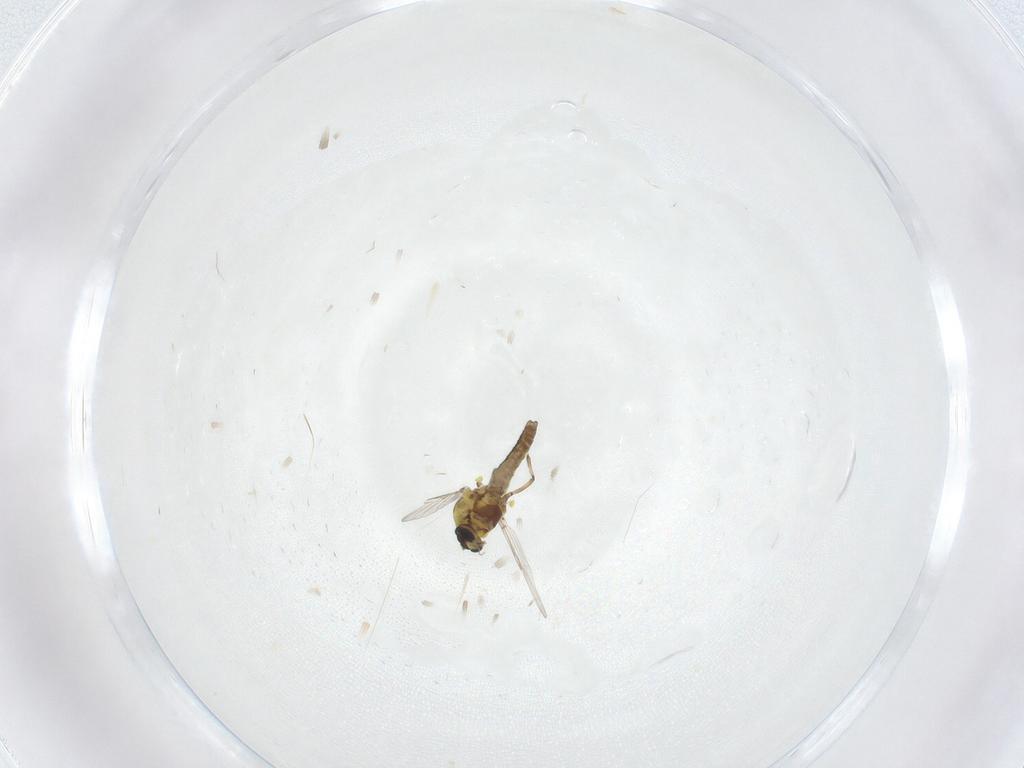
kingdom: Animalia
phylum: Arthropoda
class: Insecta
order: Diptera
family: Ceratopogonidae
